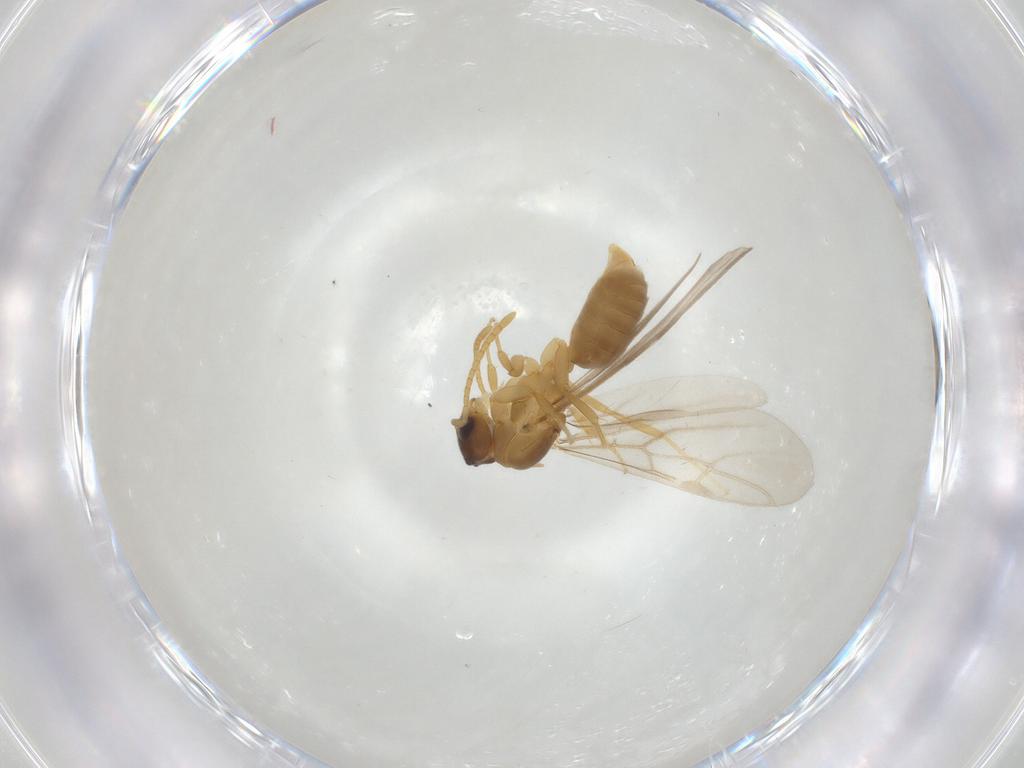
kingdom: Animalia
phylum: Arthropoda
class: Insecta
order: Hymenoptera
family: Formicidae
